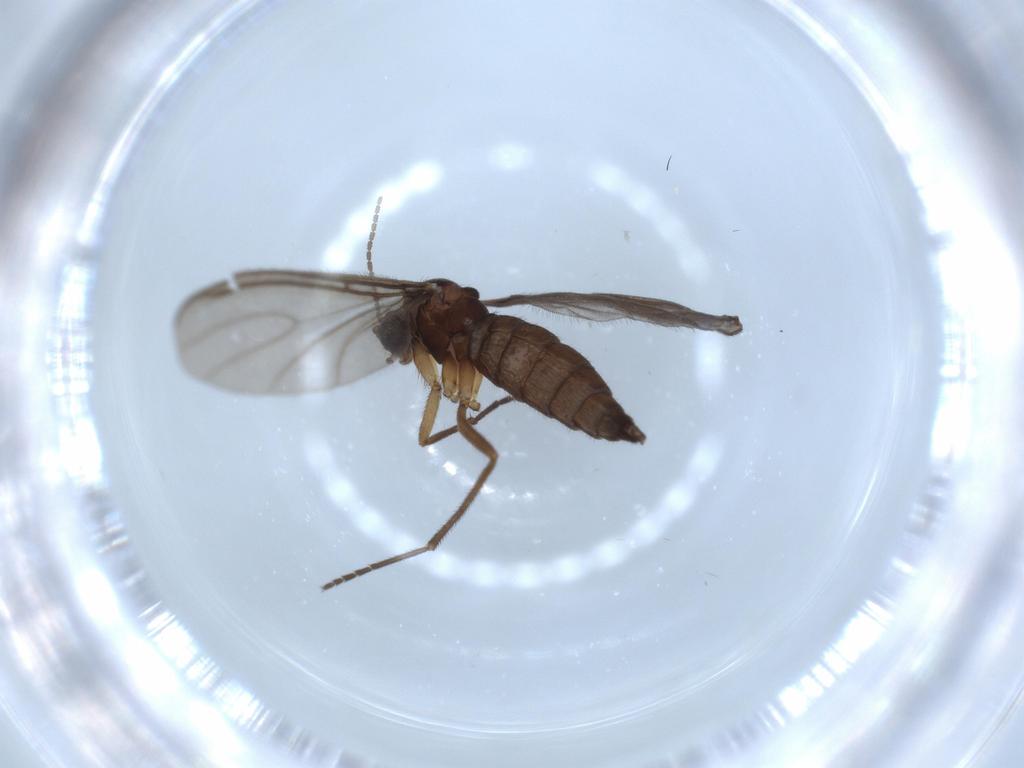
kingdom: Animalia
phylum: Arthropoda
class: Insecta
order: Diptera
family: Sciaridae
